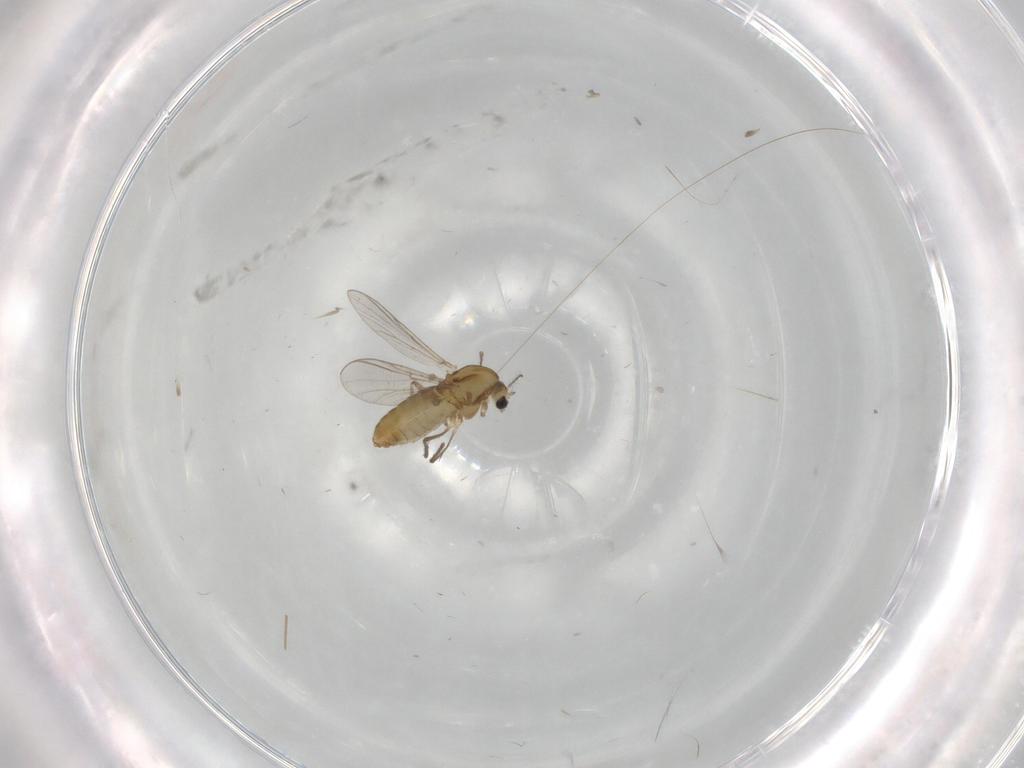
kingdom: Animalia
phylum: Arthropoda
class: Insecta
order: Diptera
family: Chironomidae
